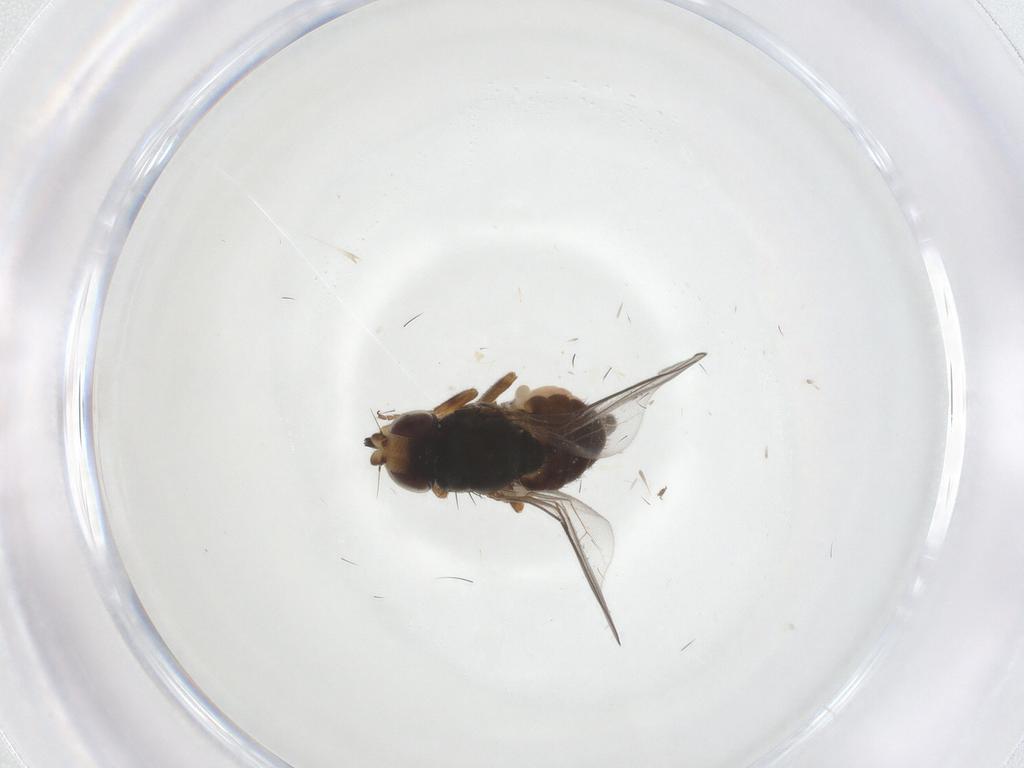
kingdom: Animalia
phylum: Arthropoda
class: Insecta
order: Diptera
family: Chloropidae
